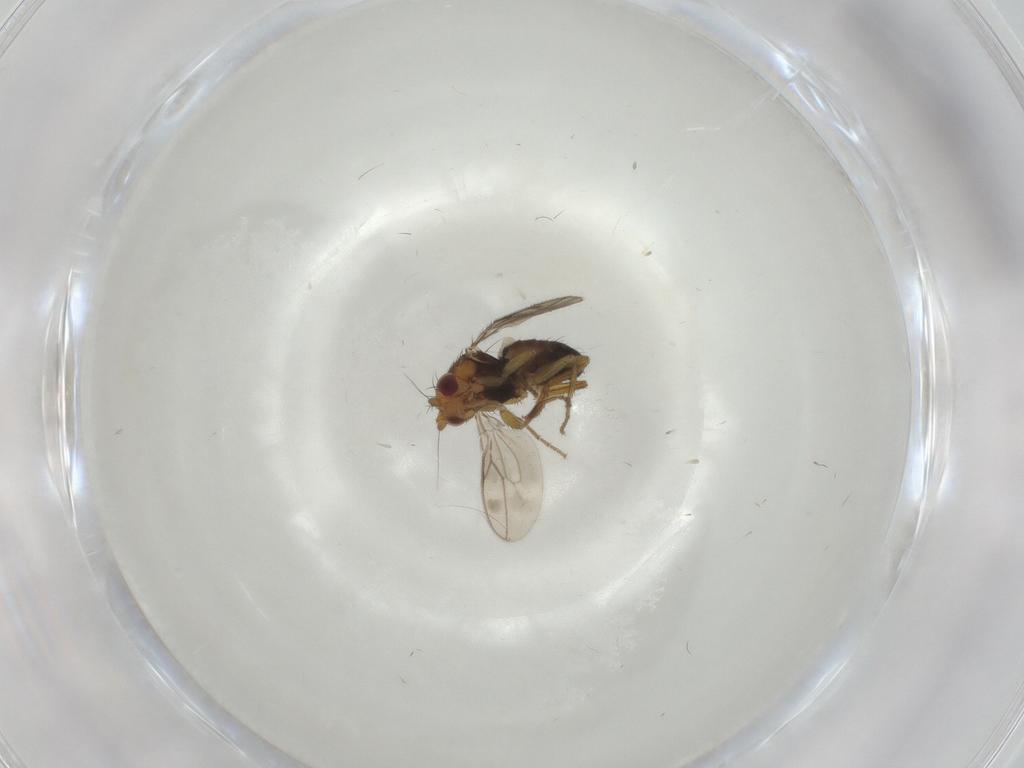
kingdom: Animalia
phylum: Arthropoda
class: Insecta
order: Diptera
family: Sphaeroceridae
